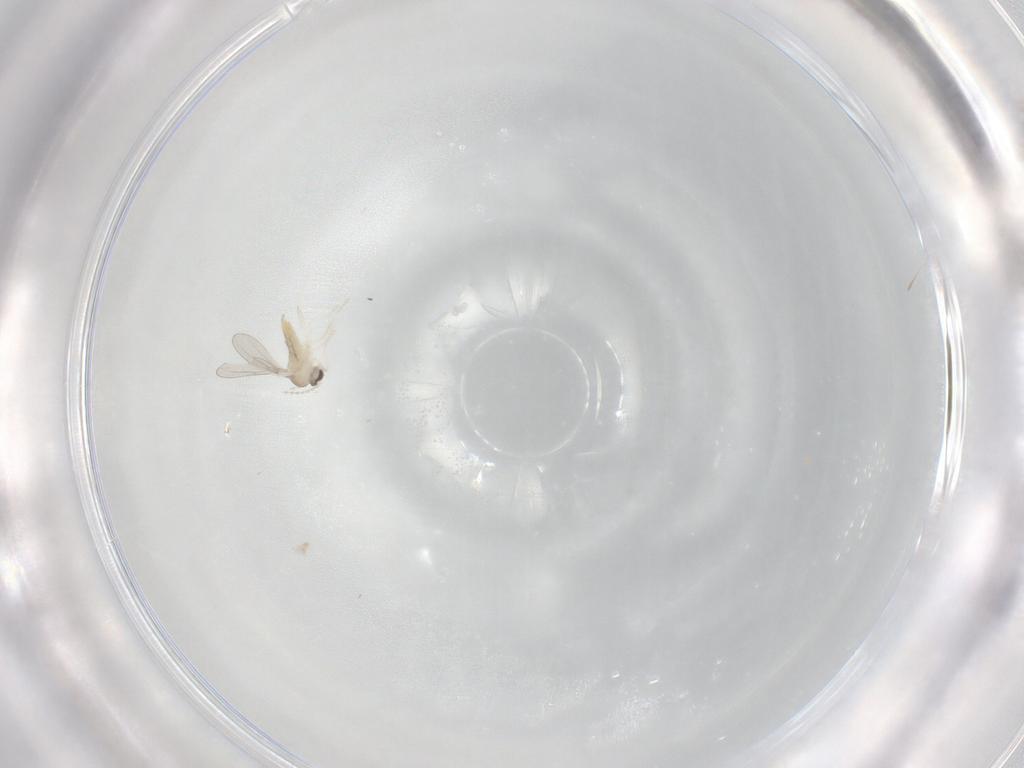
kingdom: Animalia
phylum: Arthropoda
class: Insecta
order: Diptera
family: Cecidomyiidae
